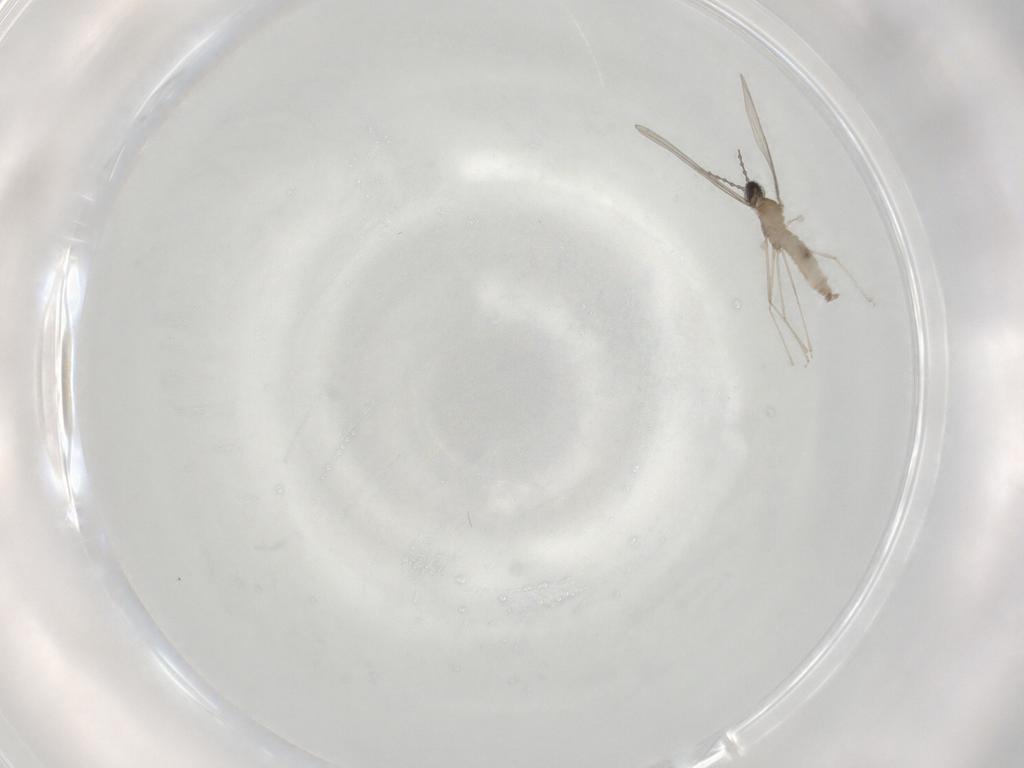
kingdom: Animalia
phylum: Arthropoda
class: Insecta
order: Diptera
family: Cecidomyiidae
